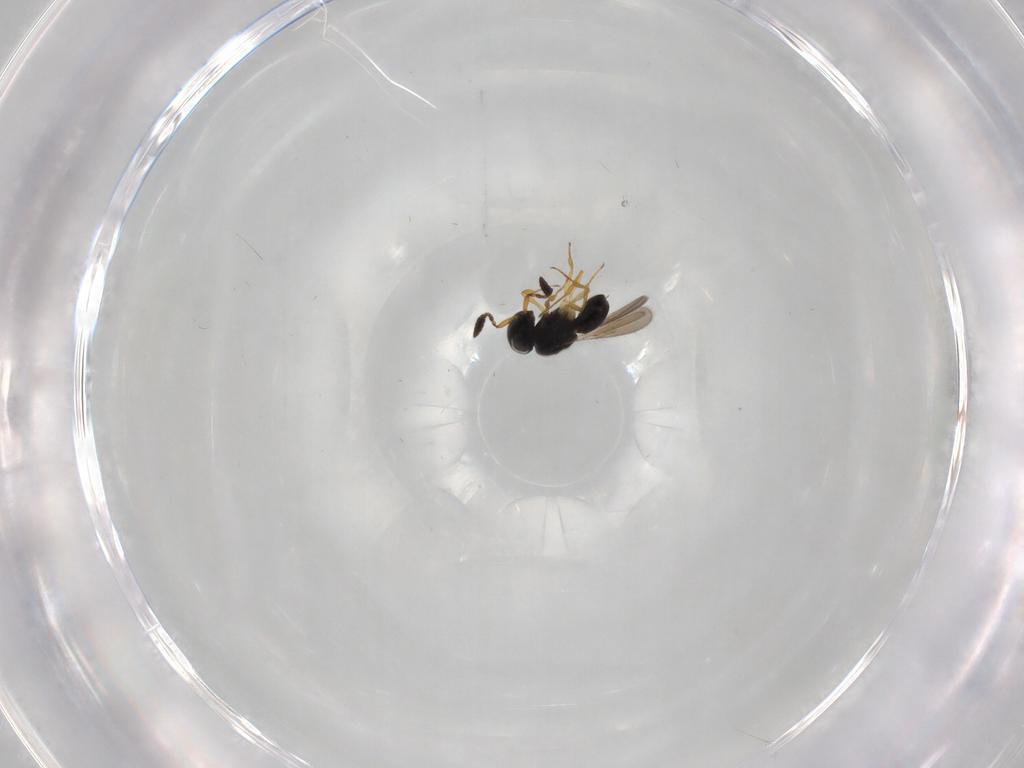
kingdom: Animalia
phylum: Arthropoda
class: Insecta
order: Hymenoptera
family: Scelionidae
